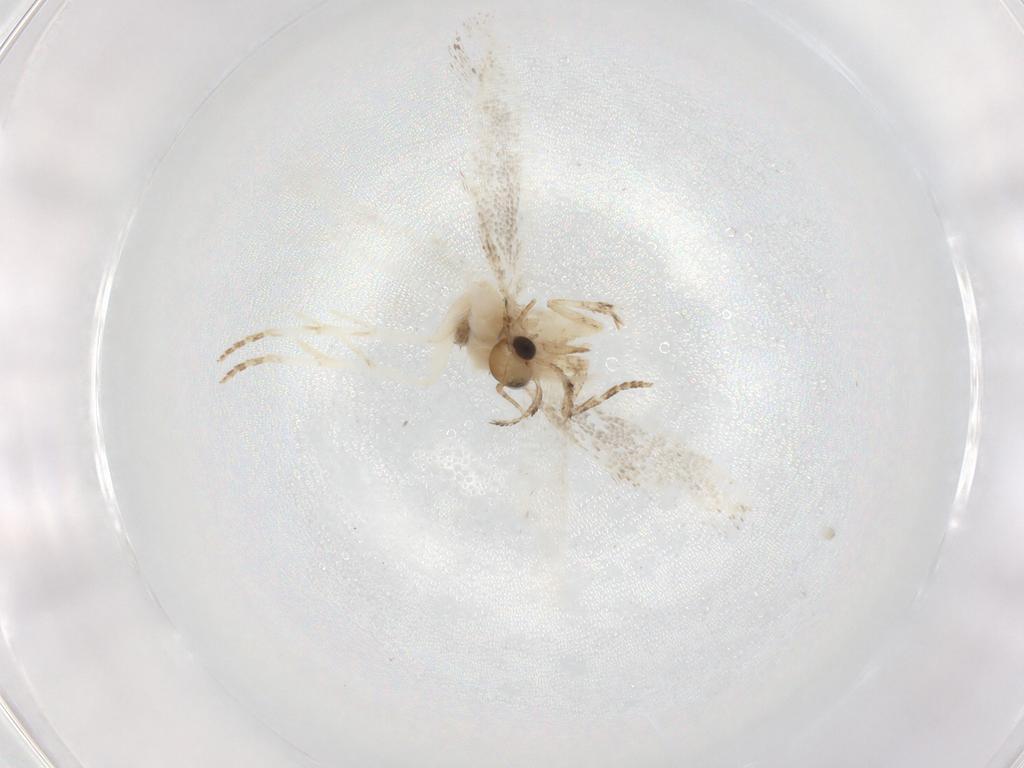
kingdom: Animalia
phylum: Arthropoda
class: Insecta
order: Lepidoptera
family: Gelechiidae
